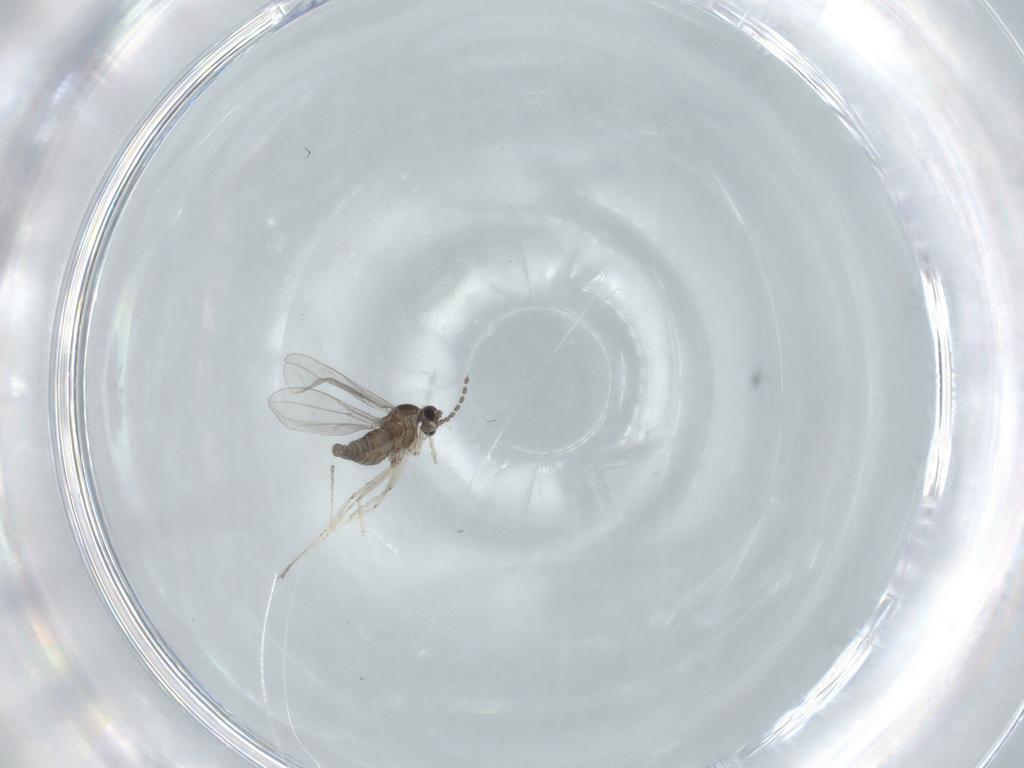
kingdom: Animalia
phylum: Arthropoda
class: Insecta
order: Diptera
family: Cecidomyiidae
